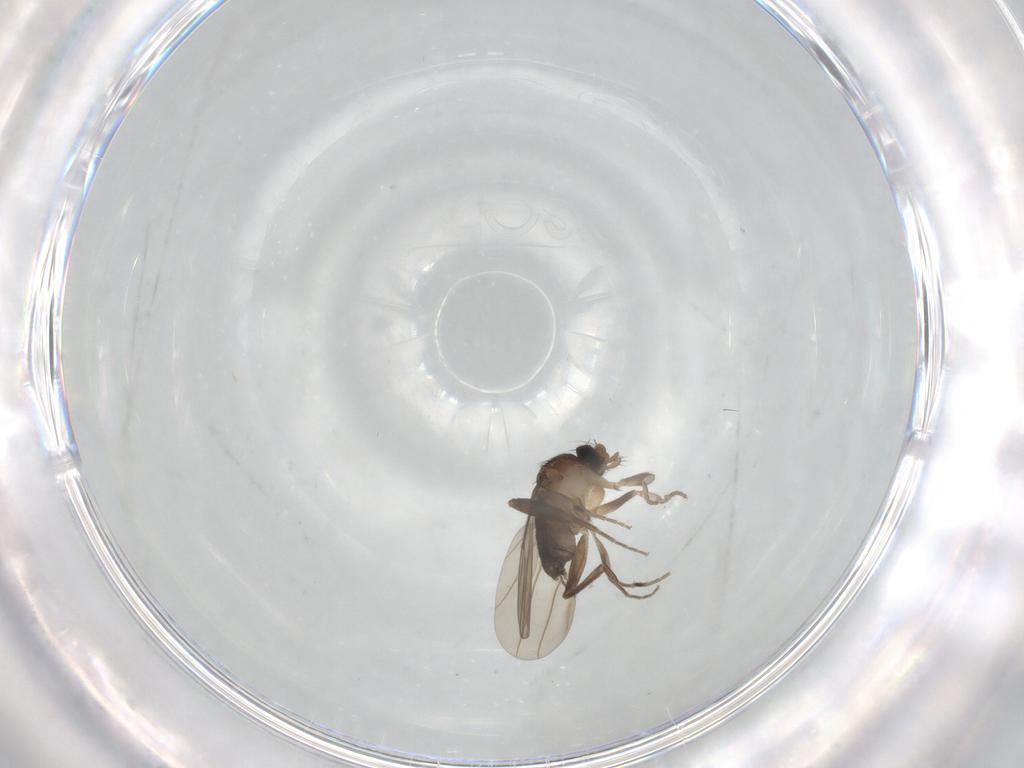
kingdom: Animalia
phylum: Arthropoda
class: Insecta
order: Diptera
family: Phoridae
